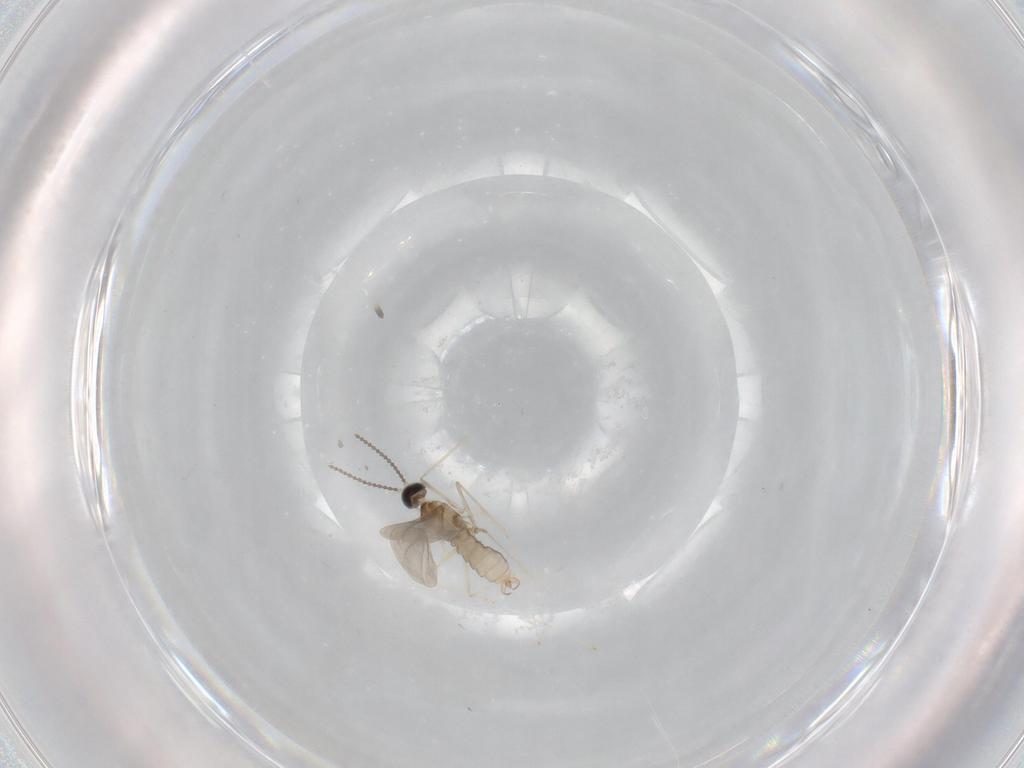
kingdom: Animalia
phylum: Arthropoda
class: Insecta
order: Diptera
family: Cecidomyiidae
